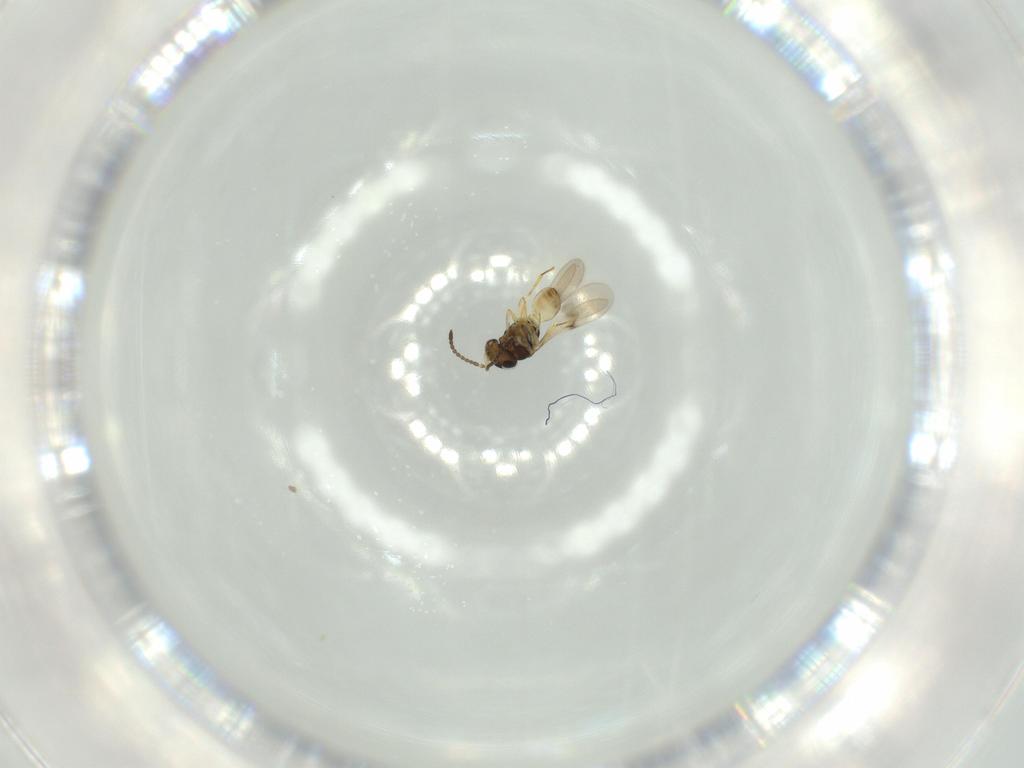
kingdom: Animalia
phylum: Arthropoda
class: Insecta
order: Hymenoptera
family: Scelionidae
